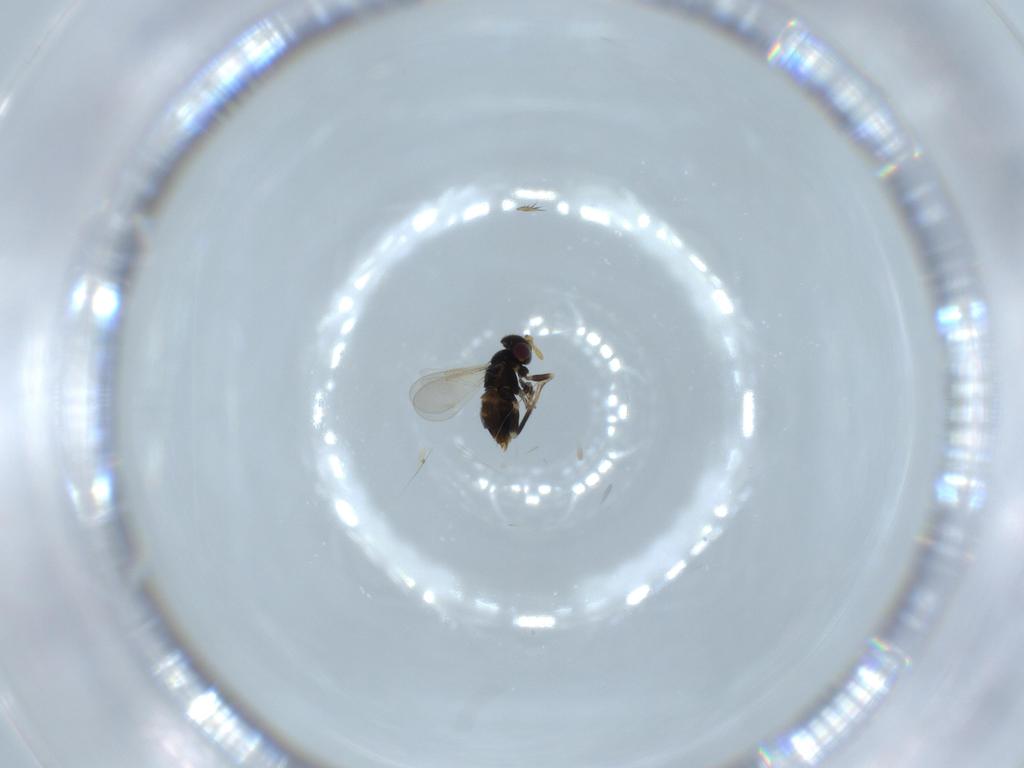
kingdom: Animalia
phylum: Arthropoda
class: Insecta
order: Hymenoptera
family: Aphelinidae
